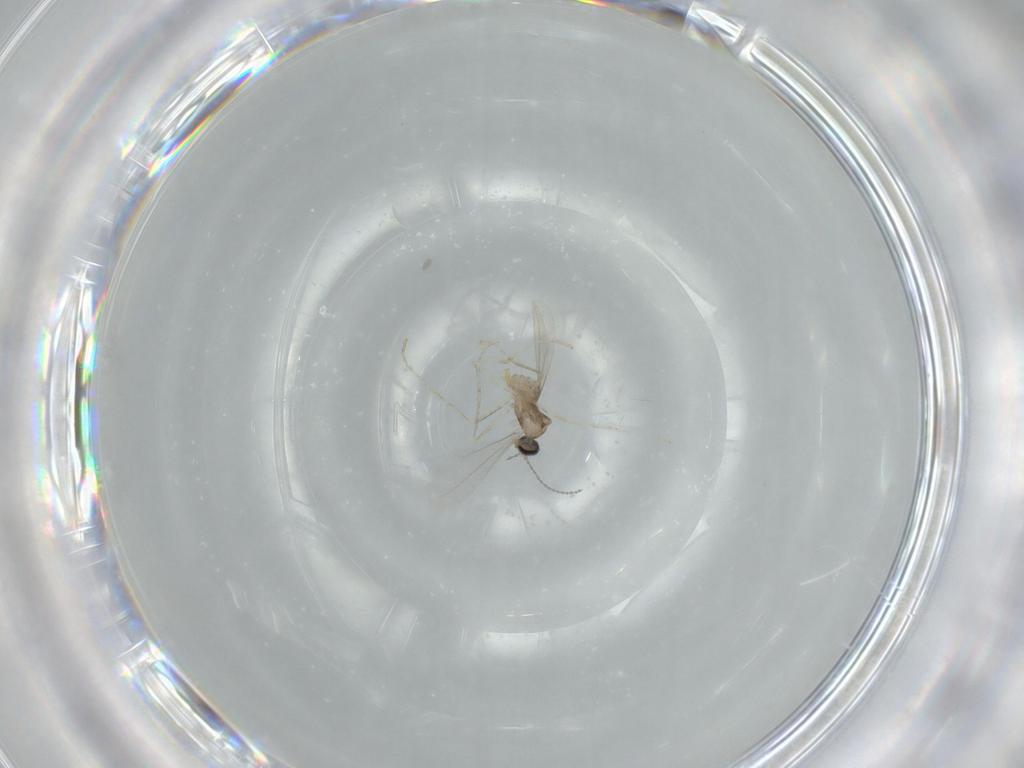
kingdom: Animalia
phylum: Arthropoda
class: Insecta
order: Diptera
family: Cecidomyiidae
